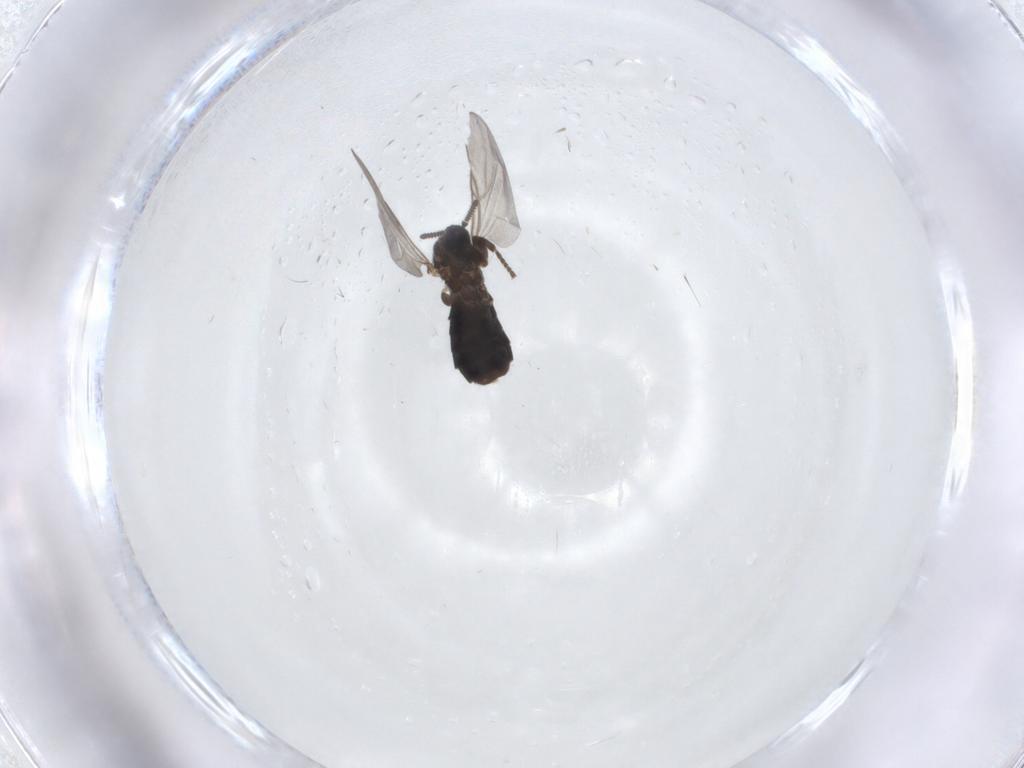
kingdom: Animalia
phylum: Arthropoda
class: Insecta
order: Diptera
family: Scatopsidae
